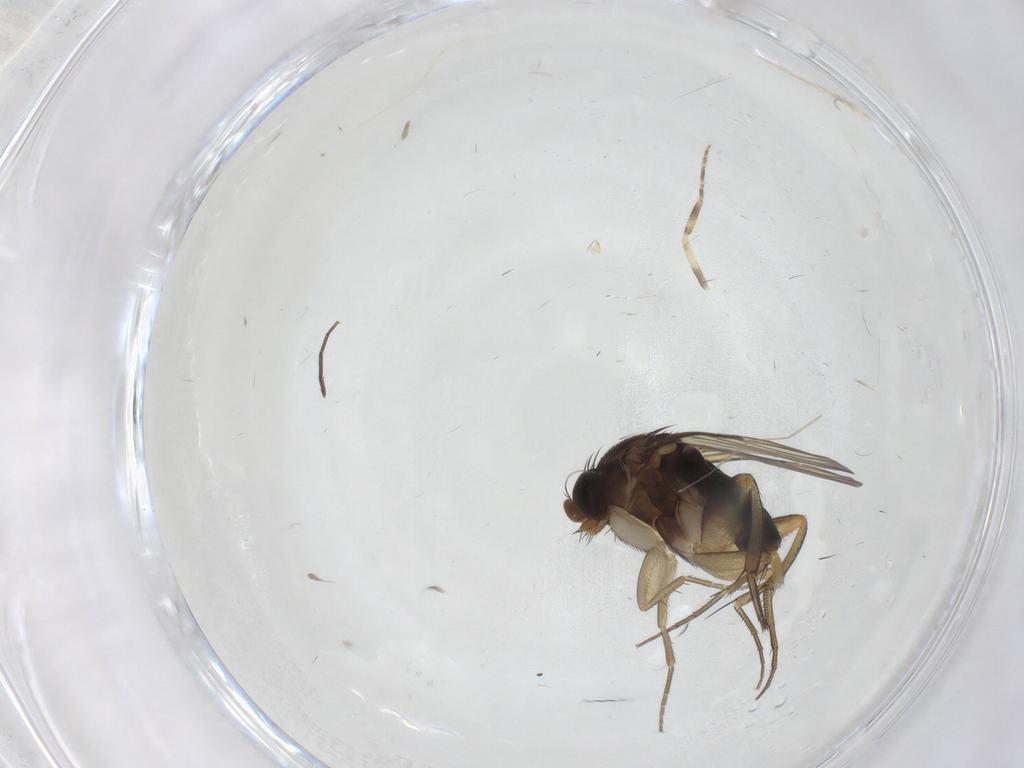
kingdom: Animalia
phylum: Arthropoda
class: Insecta
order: Diptera
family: Phoridae
